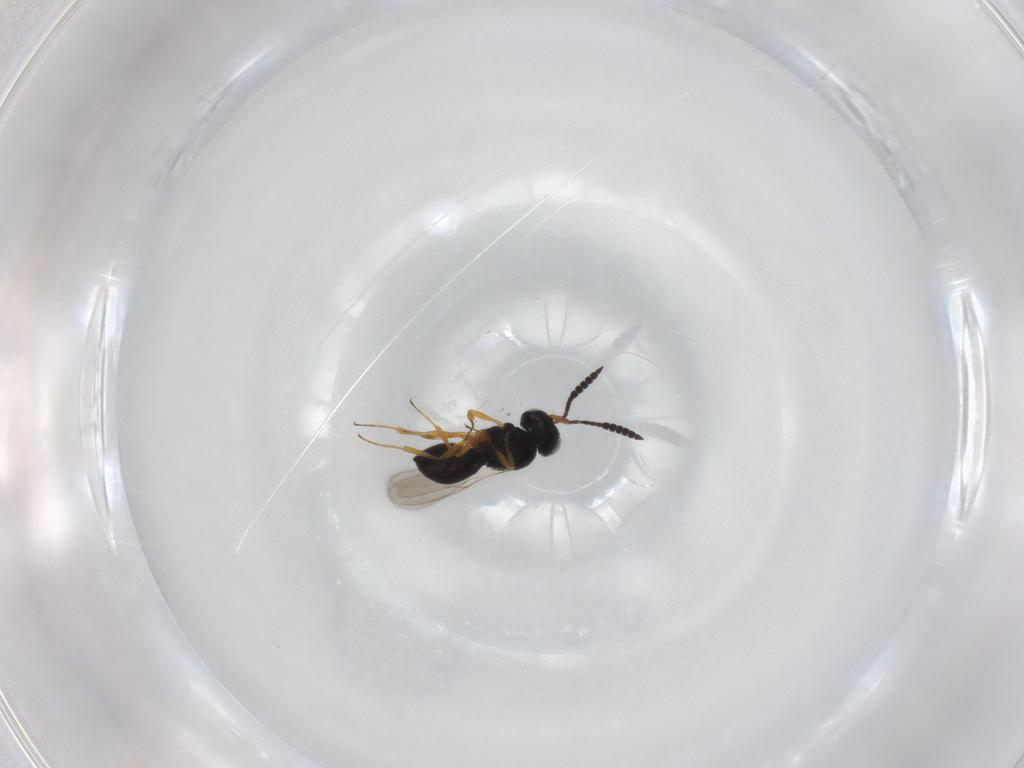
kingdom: Animalia
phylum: Arthropoda
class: Insecta
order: Hymenoptera
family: Scelionidae
